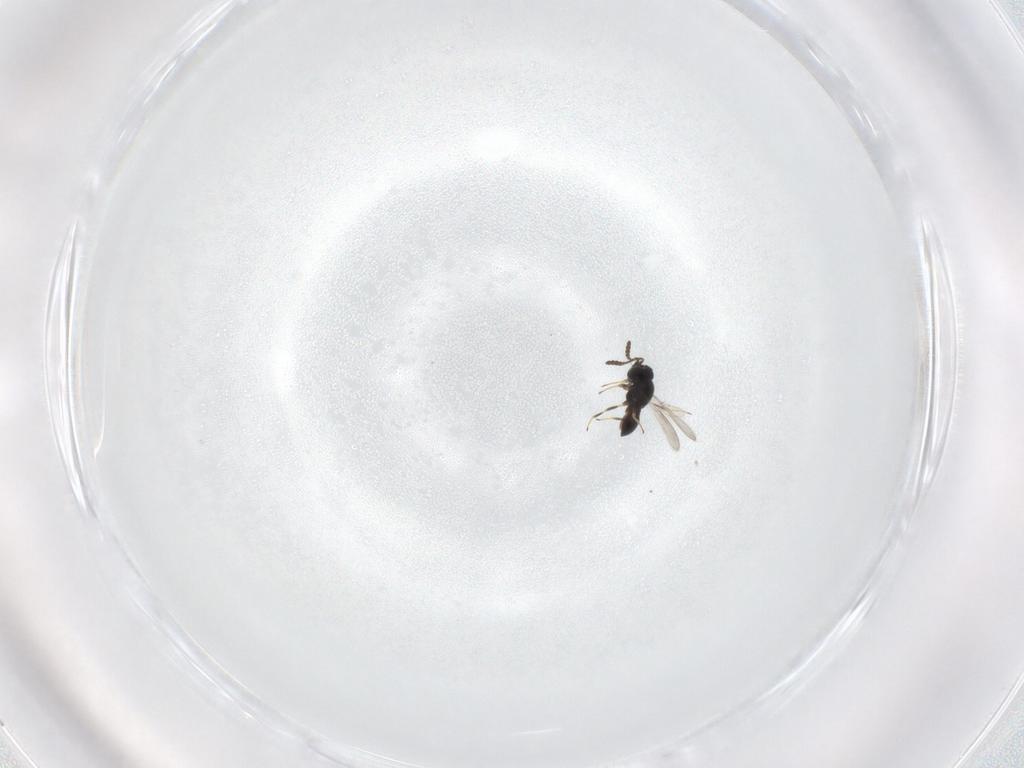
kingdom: Animalia
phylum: Arthropoda
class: Insecta
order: Hymenoptera
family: Scelionidae
